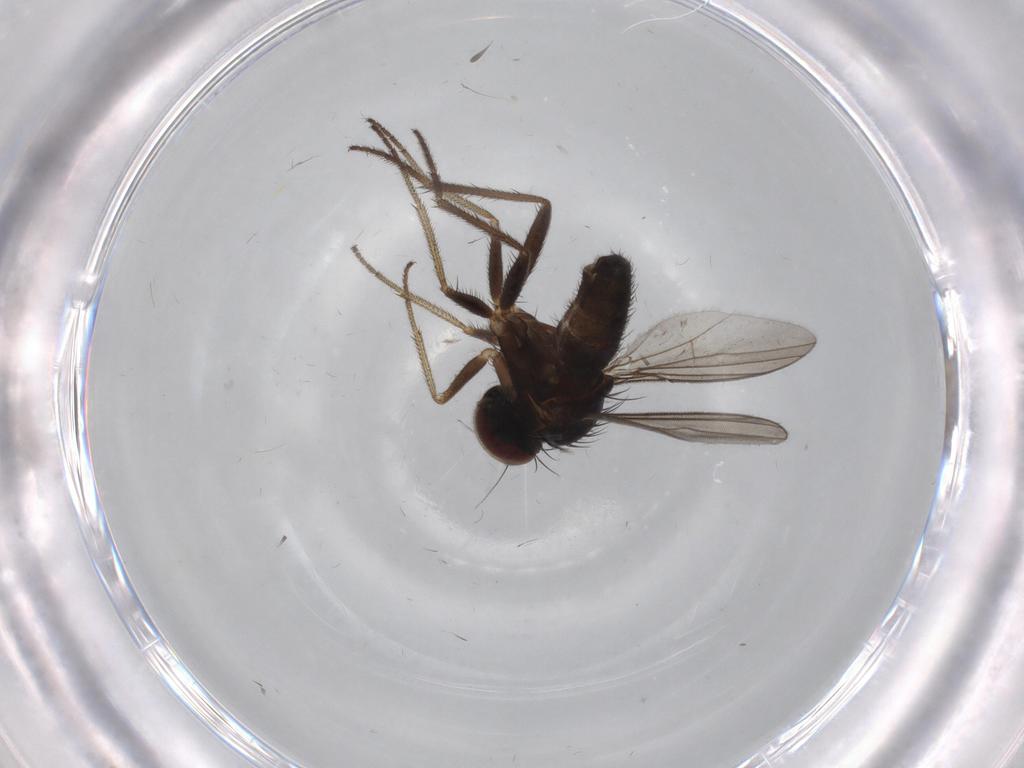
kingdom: Animalia
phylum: Arthropoda
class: Insecta
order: Diptera
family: Dolichopodidae
